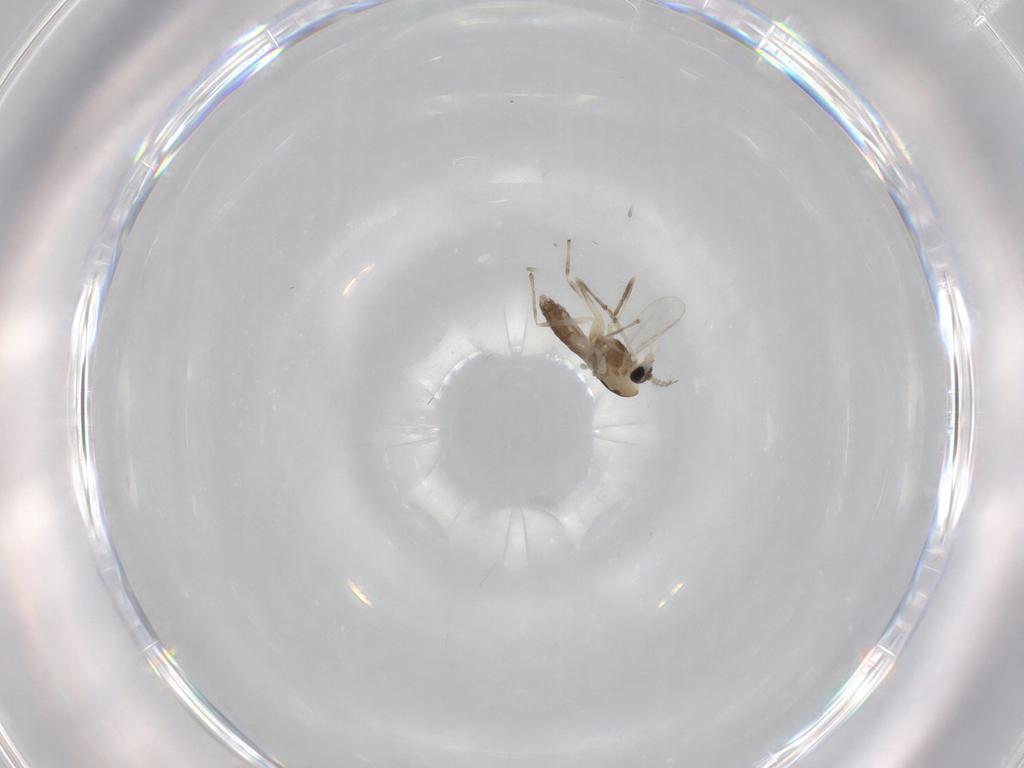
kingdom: Animalia
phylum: Arthropoda
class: Insecta
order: Diptera
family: Chironomidae
